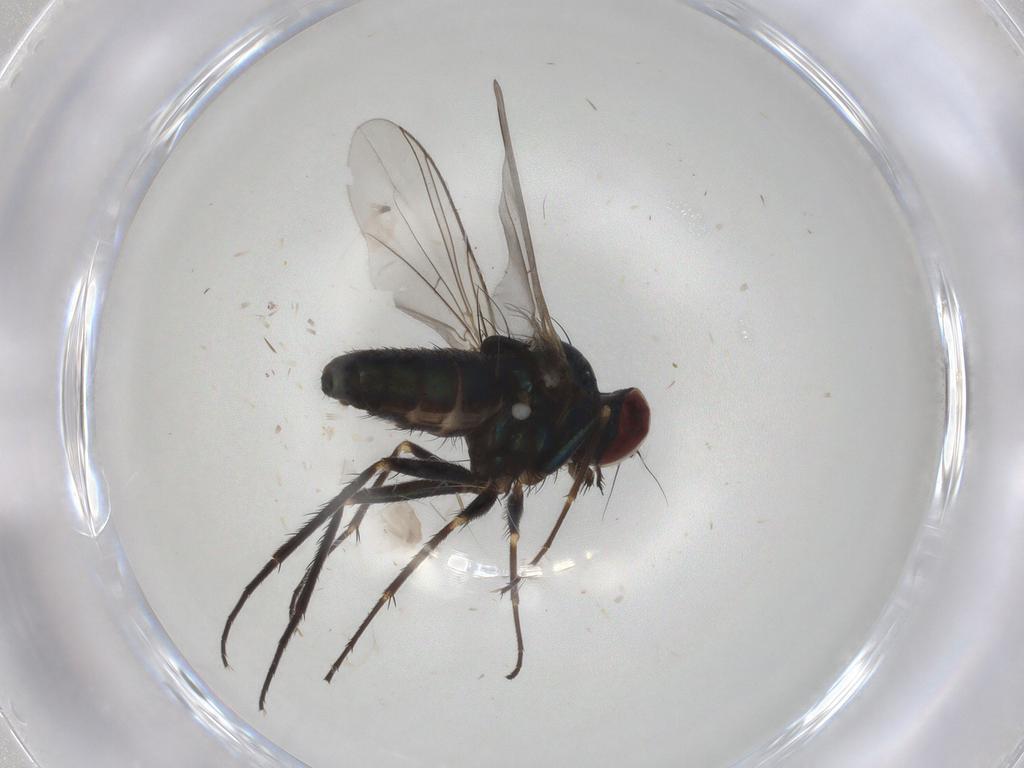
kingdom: Animalia
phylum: Arthropoda
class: Insecta
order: Diptera
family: Dolichopodidae
